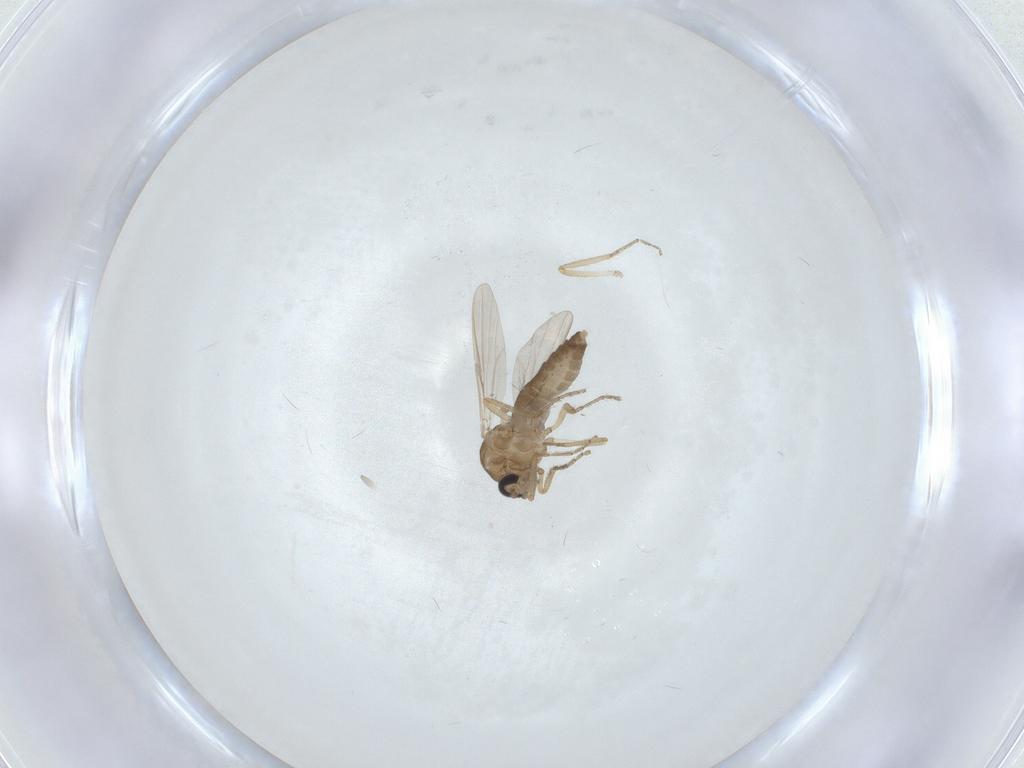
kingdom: Animalia
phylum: Arthropoda
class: Insecta
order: Diptera
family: Ceratopogonidae
